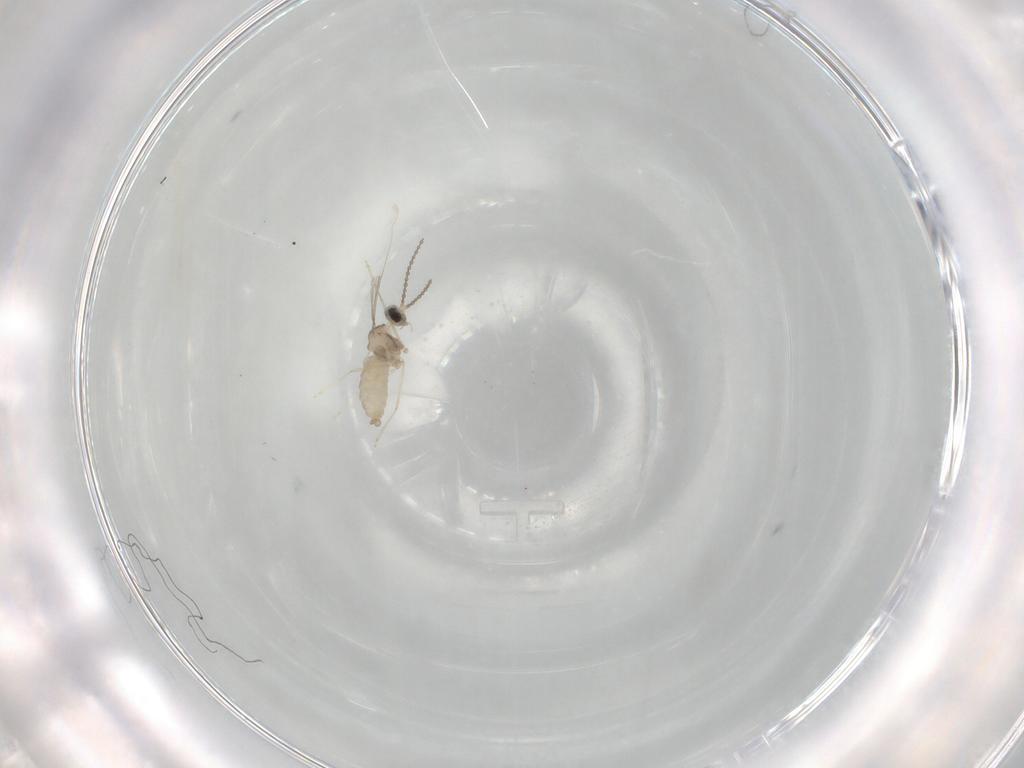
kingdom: Animalia
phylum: Arthropoda
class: Insecta
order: Diptera
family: Cecidomyiidae
